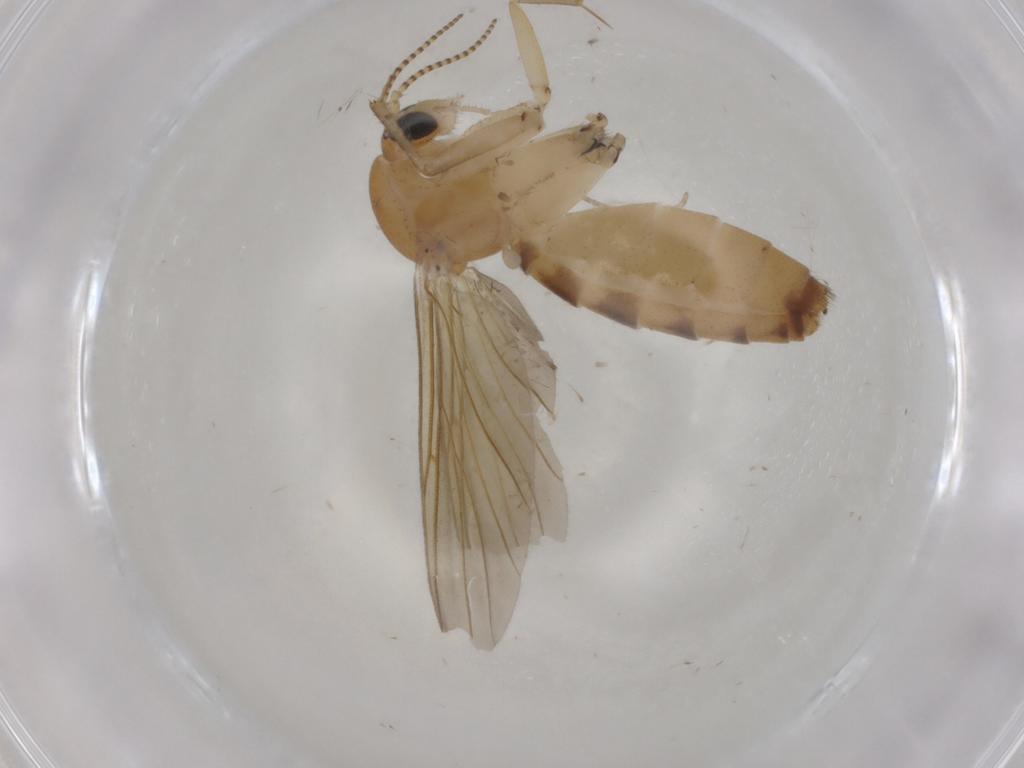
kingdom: Animalia
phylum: Arthropoda
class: Insecta
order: Diptera
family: Mycetophilidae
